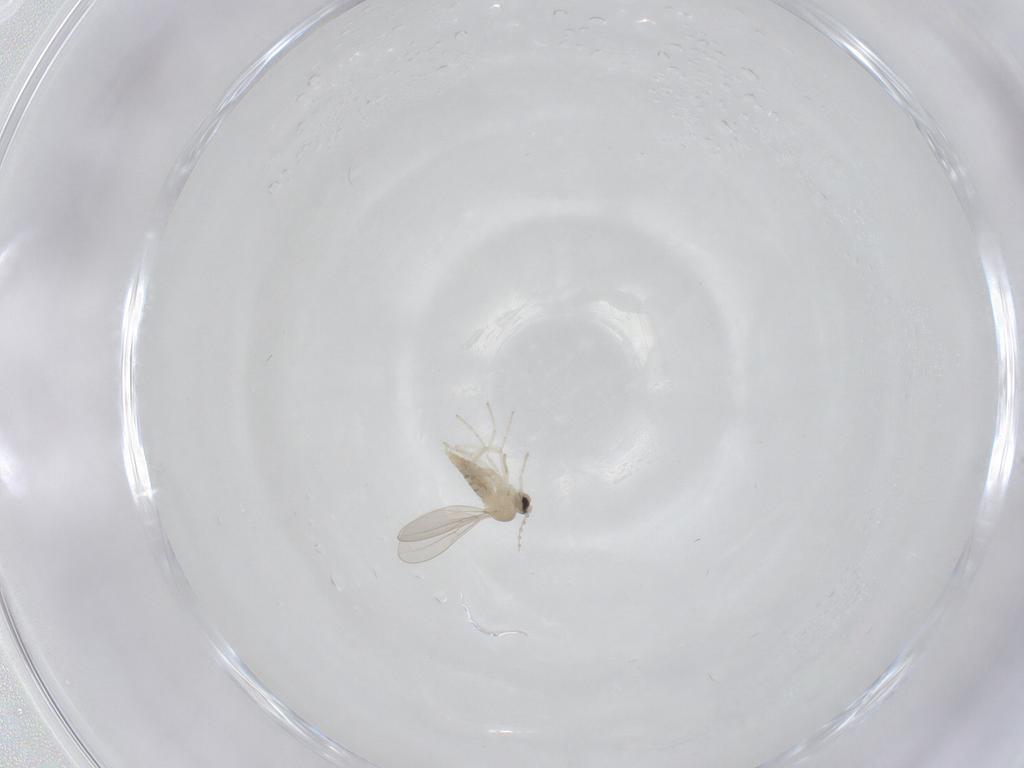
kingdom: Animalia
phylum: Arthropoda
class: Insecta
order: Diptera
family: Cecidomyiidae
